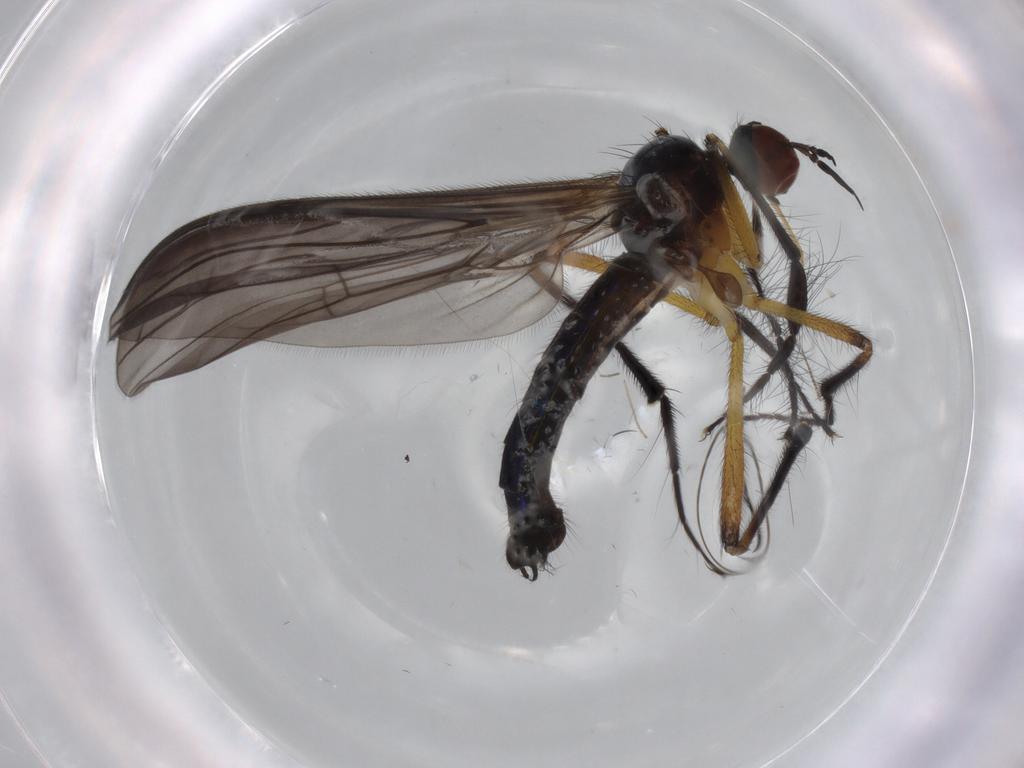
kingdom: Animalia
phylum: Arthropoda
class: Insecta
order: Diptera
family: Empididae
